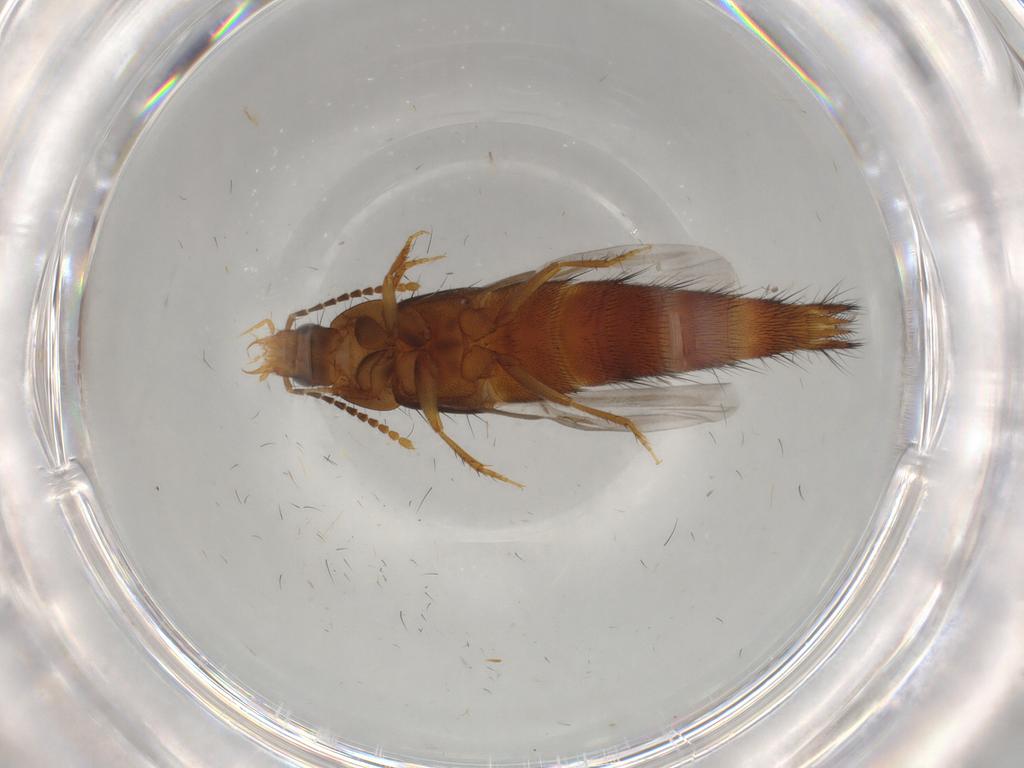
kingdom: Animalia
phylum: Arthropoda
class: Insecta
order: Coleoptera
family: Staphylinidae
